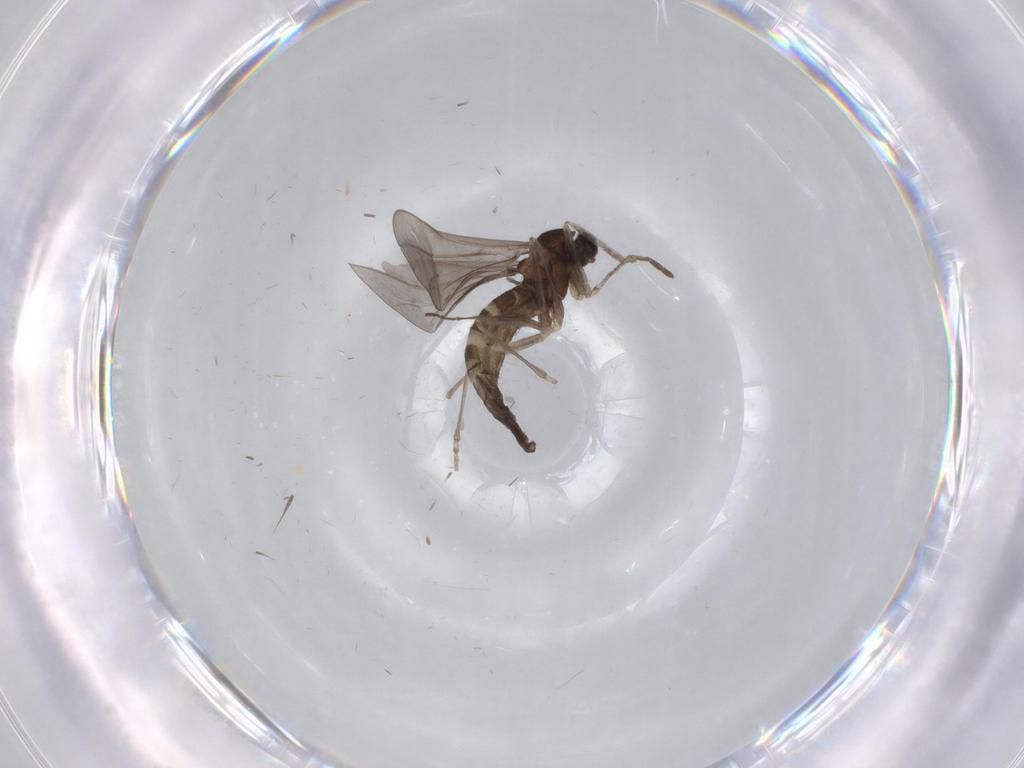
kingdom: Animalia
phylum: Arthropoda
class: Insecta
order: Diptera
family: Cecidomyiidae
